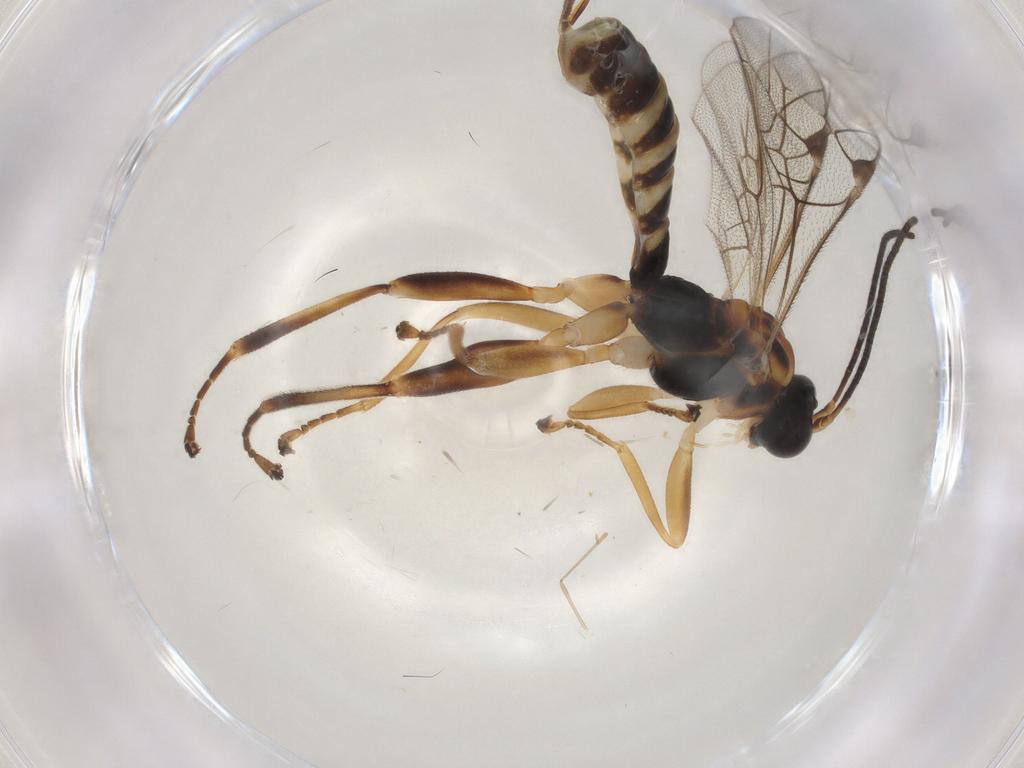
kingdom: Animalia
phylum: Arthropoda
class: Insecta
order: Hymenoptera
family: Ichneumonidae
